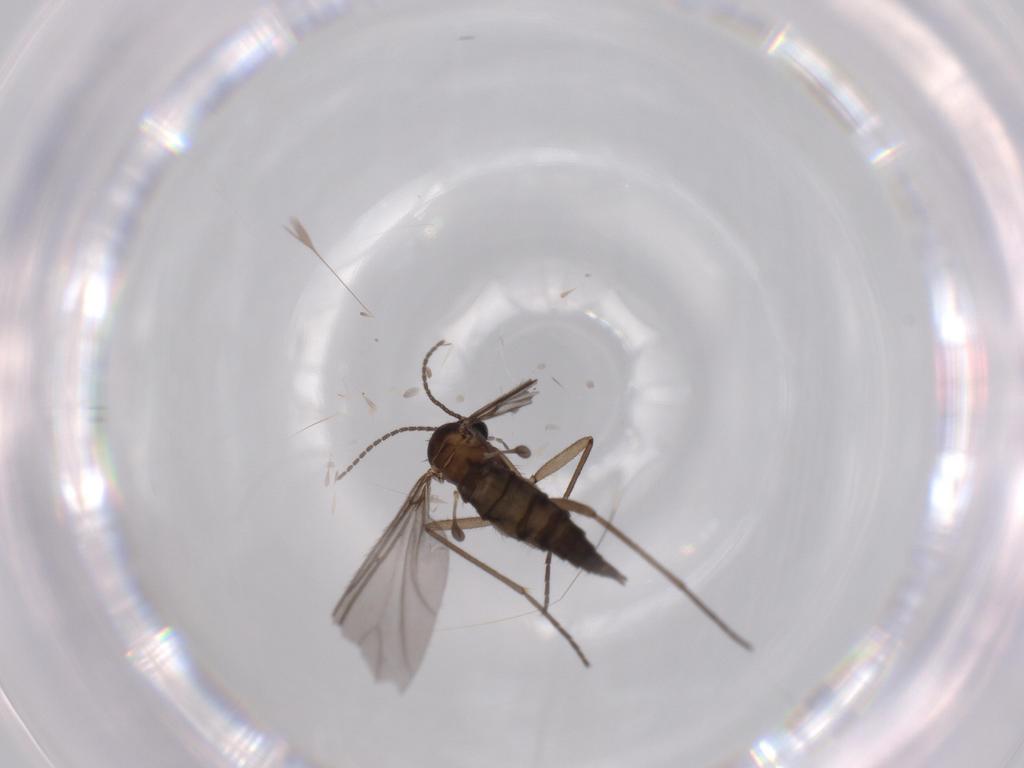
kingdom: Animalia
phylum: Arthropoda
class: Insecta
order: Diptera
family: Sciaridae
